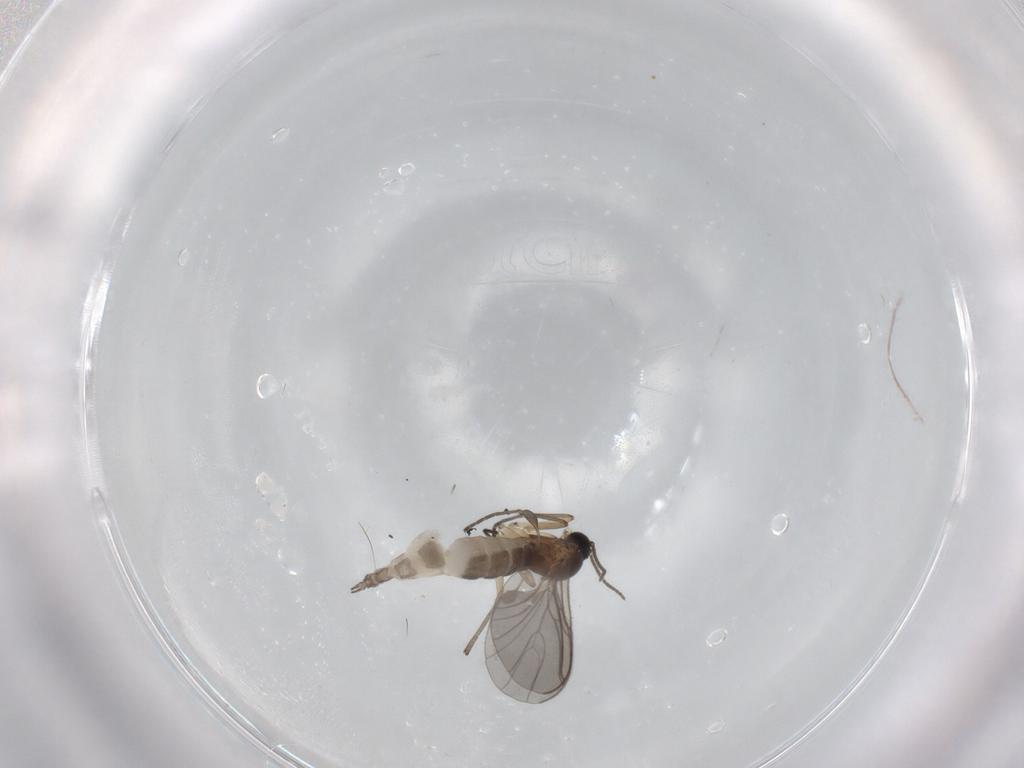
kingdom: Animalia
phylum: Arthropoda
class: Insecta
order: Diptera
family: Sciaridae
